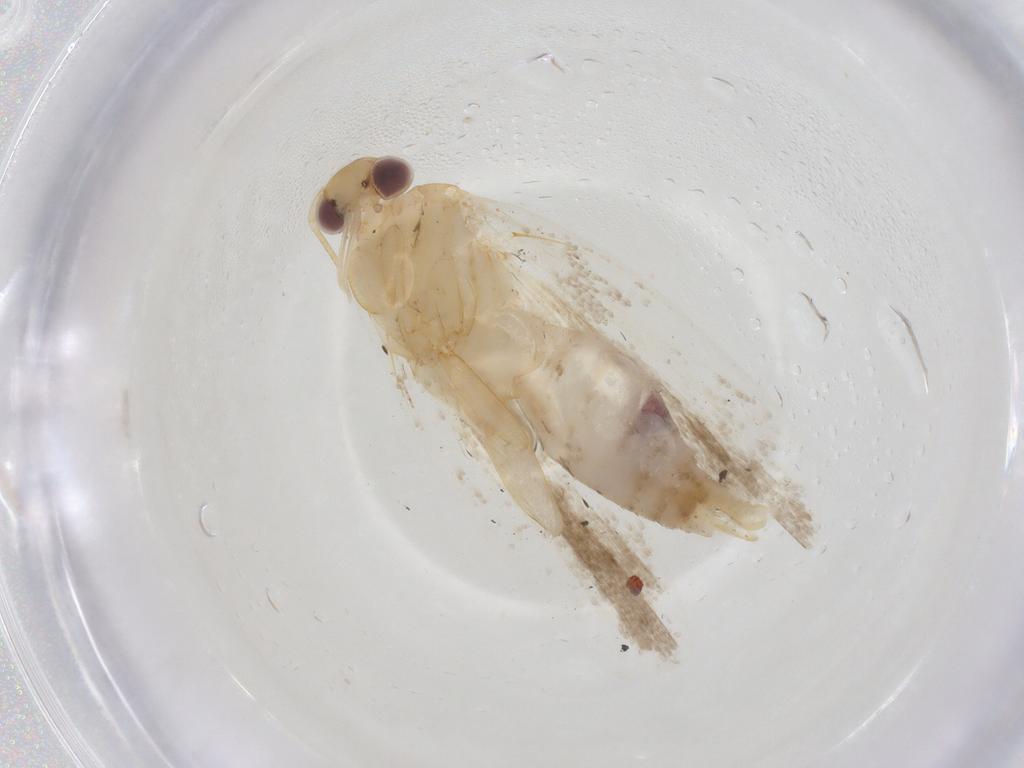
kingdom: Animalia
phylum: Arthropoda
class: Insecta
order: Lepidoptera
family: Gelechiidae
